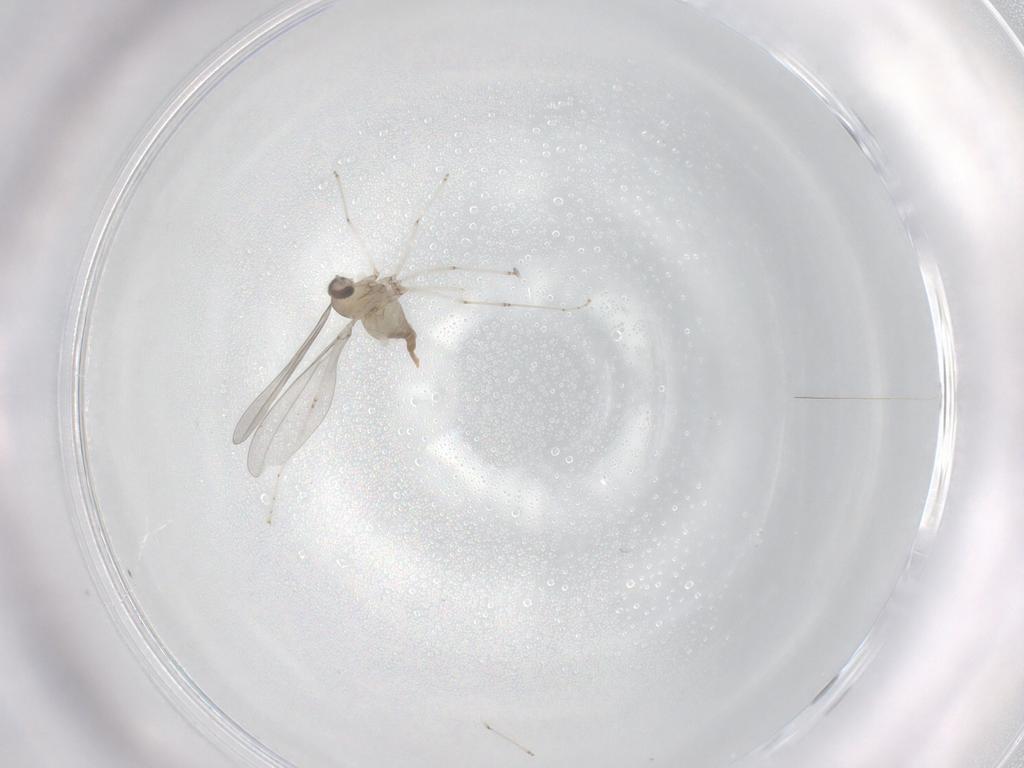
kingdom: Animalia
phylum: Arthropoda
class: Insecta
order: Diptera
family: Cecidomyiidae
